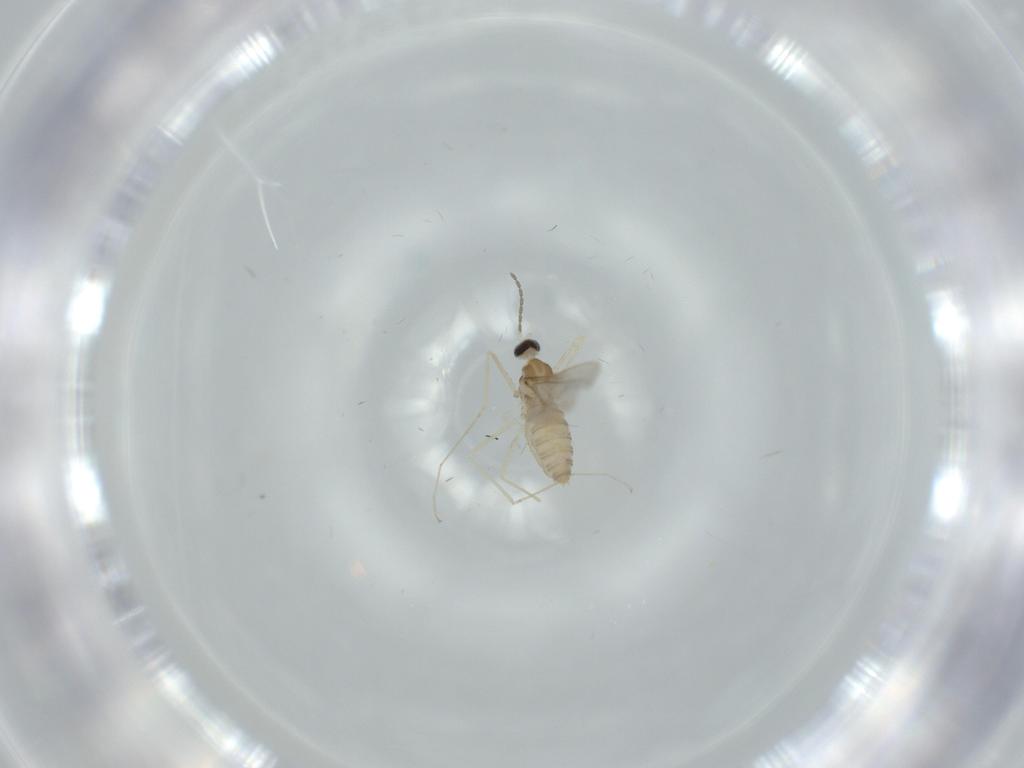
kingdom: Animalia
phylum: Arthropoda
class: Insecta
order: Diptera
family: Cecidomyiidae
